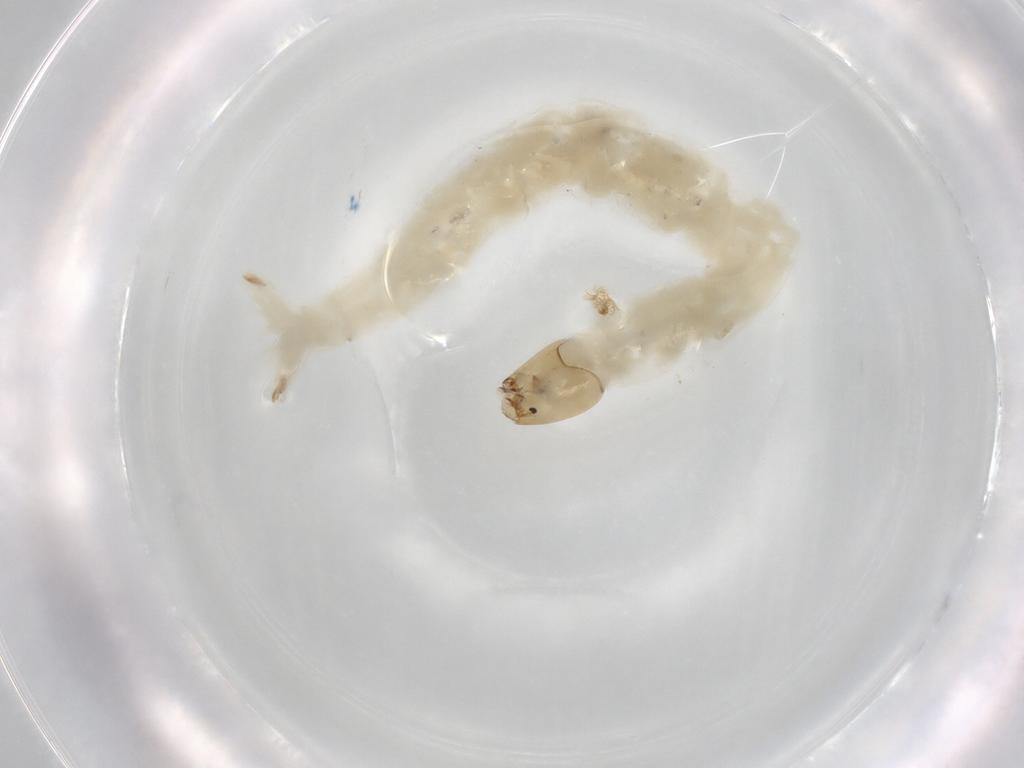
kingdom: Animalia
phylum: Arthropoda
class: Insecta
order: Diptera
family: Chironomidae
